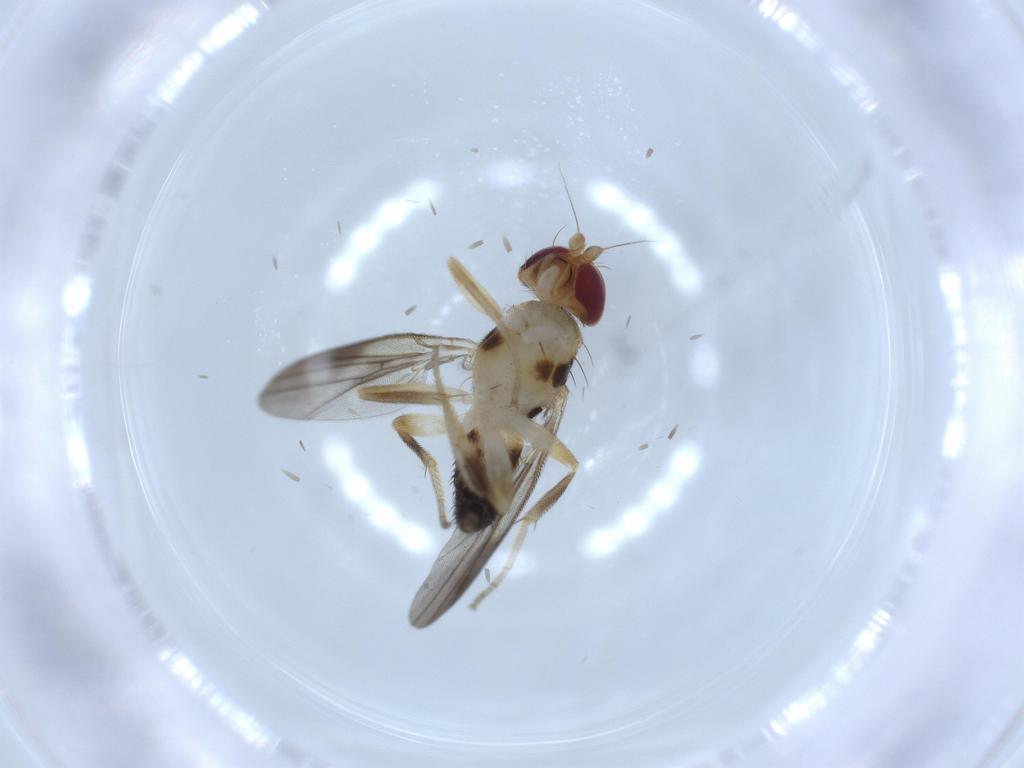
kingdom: Animalia
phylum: Arthropoda
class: Insecta
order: Diptera
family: Clusiidae
